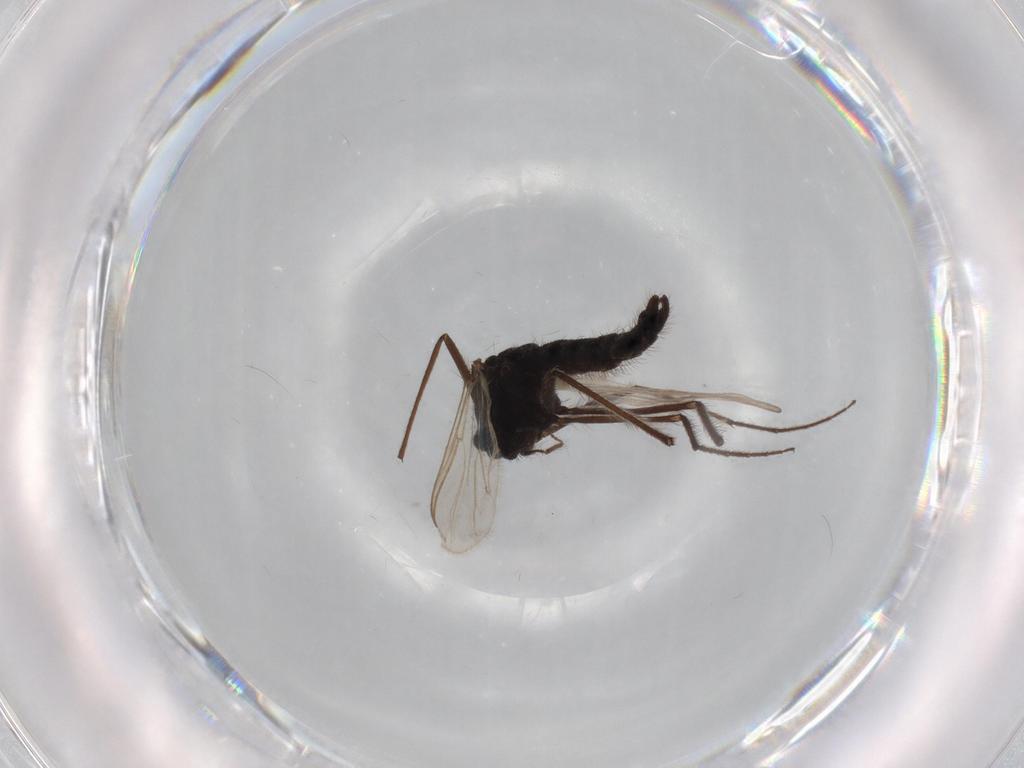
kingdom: Animalia
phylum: Arthropoda
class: Insecta
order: Diptera
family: Sciaridae
